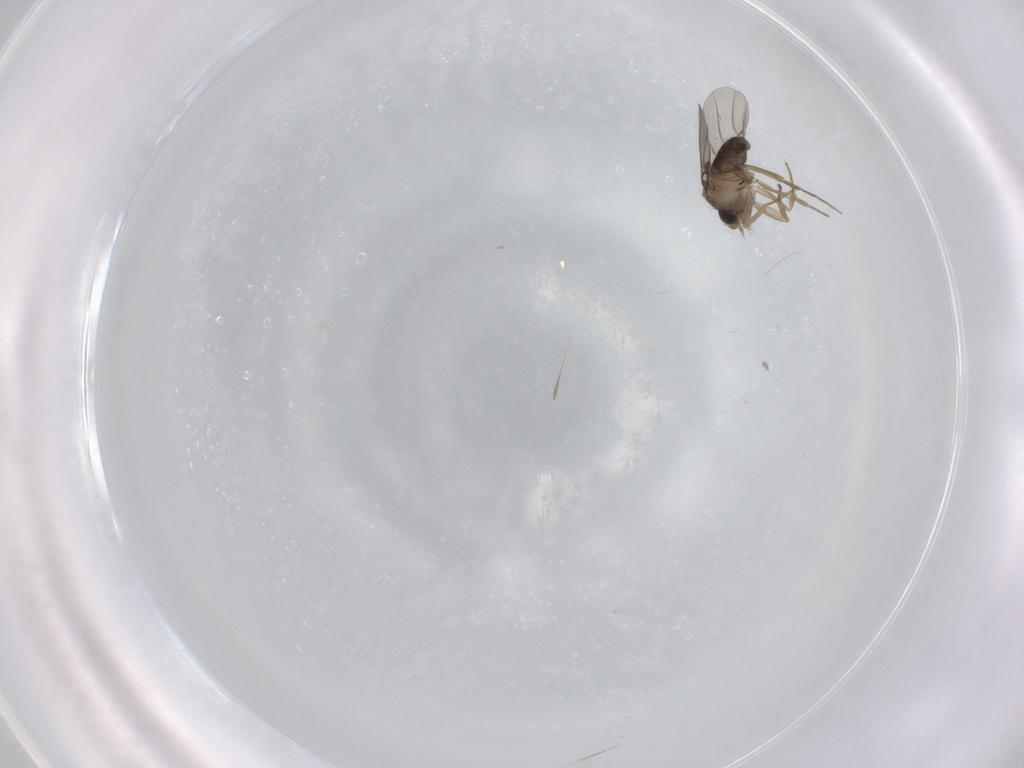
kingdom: Animalia
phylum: Arthropoda
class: Insecta
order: Diptera
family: Phoridae
